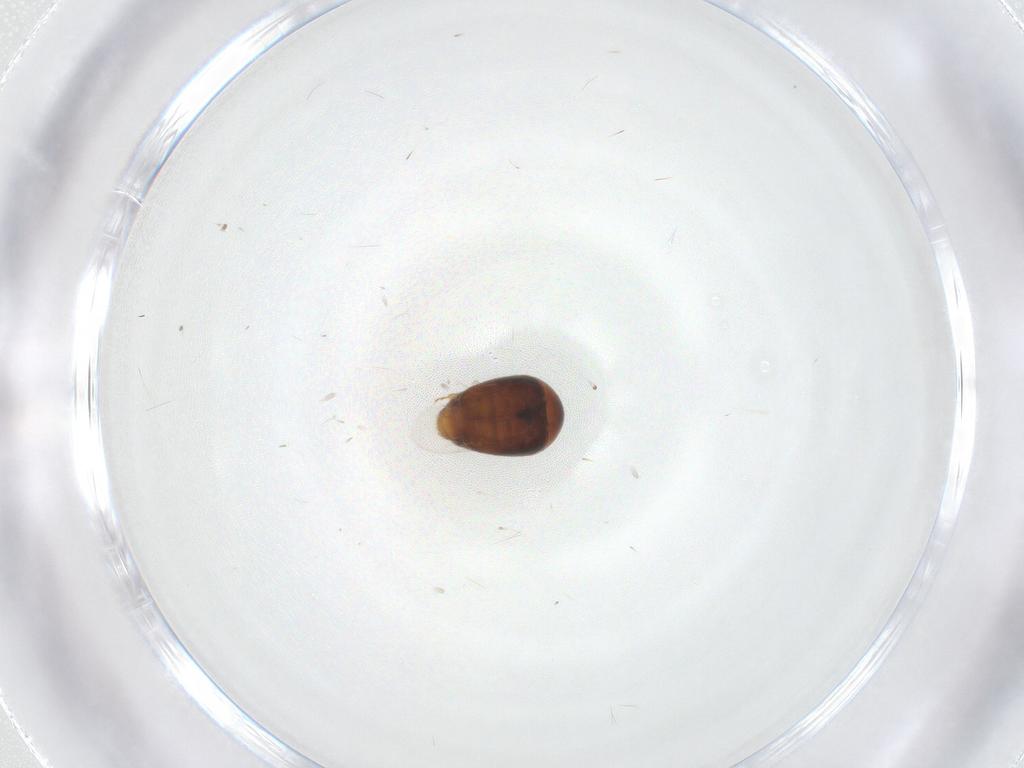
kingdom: Animalia
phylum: Arthropoda
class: Insecta
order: Coleoptera
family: Corylophidae
